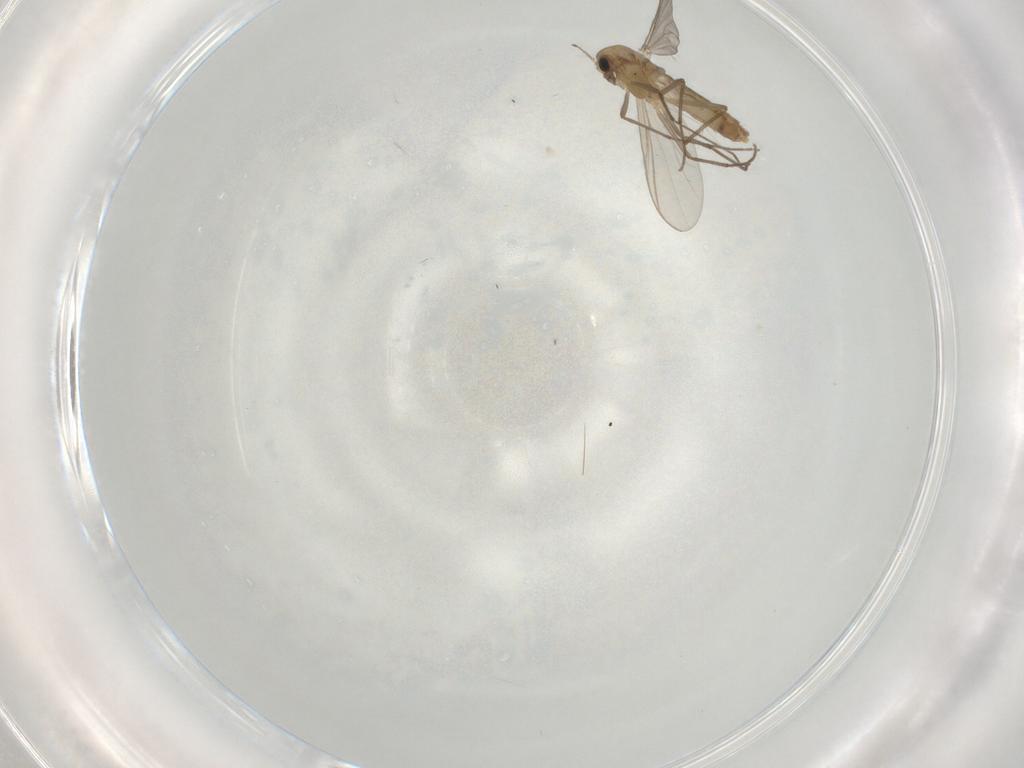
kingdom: Animalia
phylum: Arthropoda
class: Insecta
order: Diptera
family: Chironomidae
